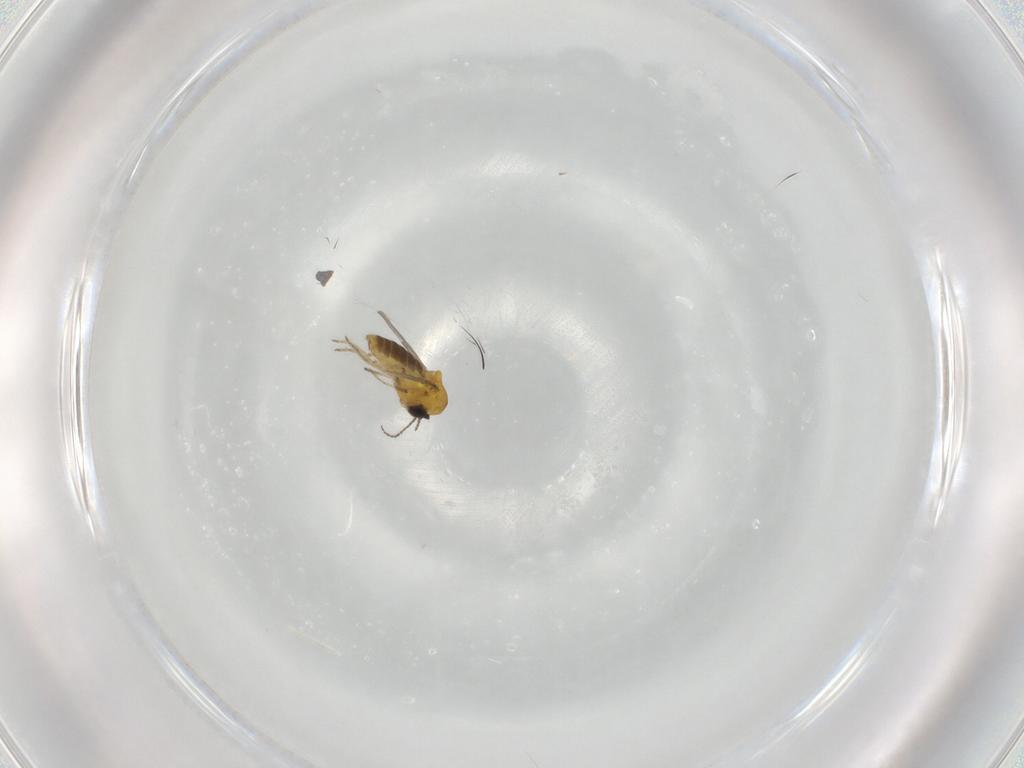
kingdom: Animalia
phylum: Arthropoda
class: Insecta
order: Diptera
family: Ceratopogonidae
